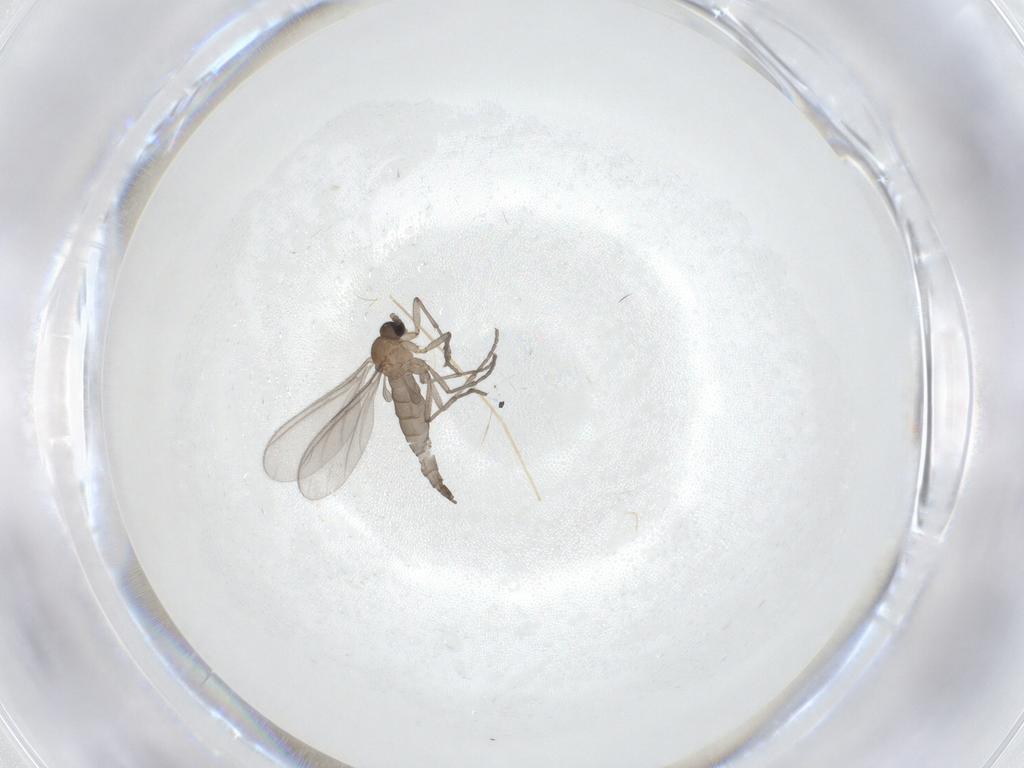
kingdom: Animalia
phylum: Arthropoda
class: Insecta
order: Diptera
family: Sciaridae
